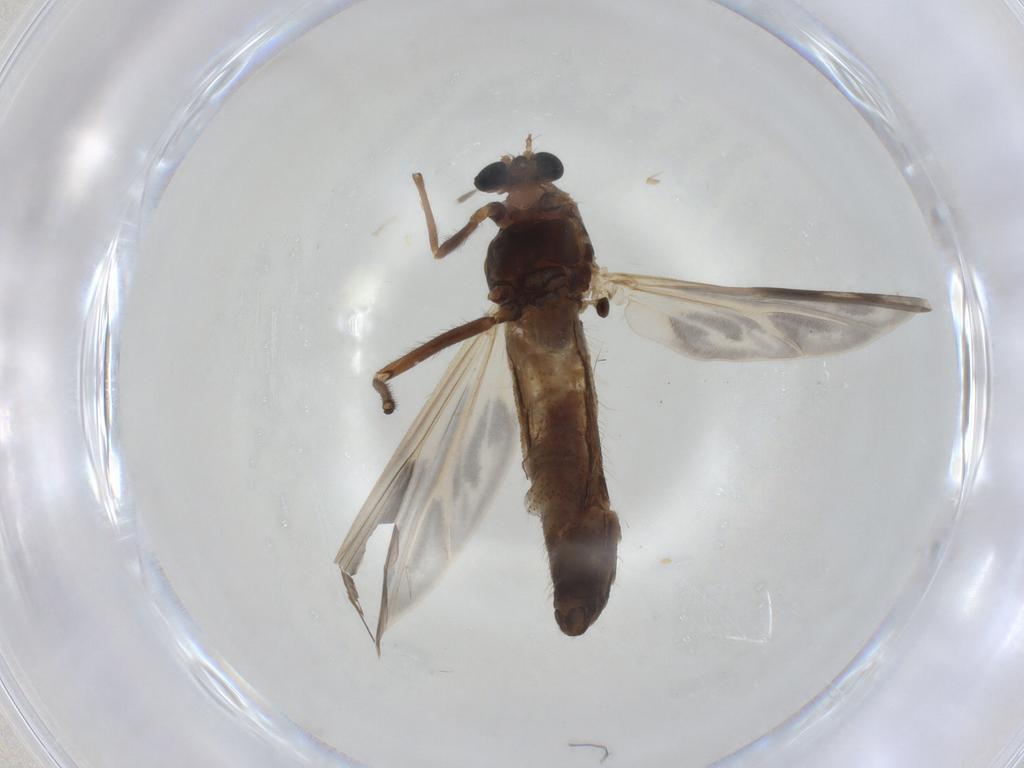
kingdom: Animalia
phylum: Arthropoda
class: Insecta
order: Diptera
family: Chironomidae
